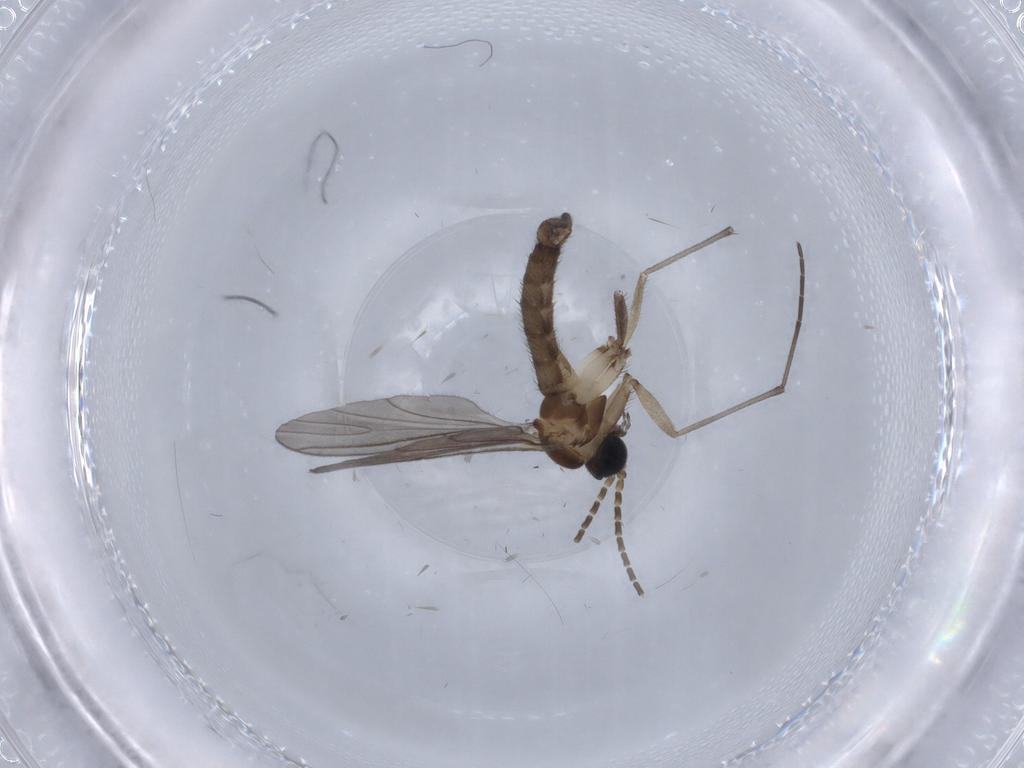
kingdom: Animalia
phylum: Arthropoda
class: Insecta
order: Diptera
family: Sciaridae
